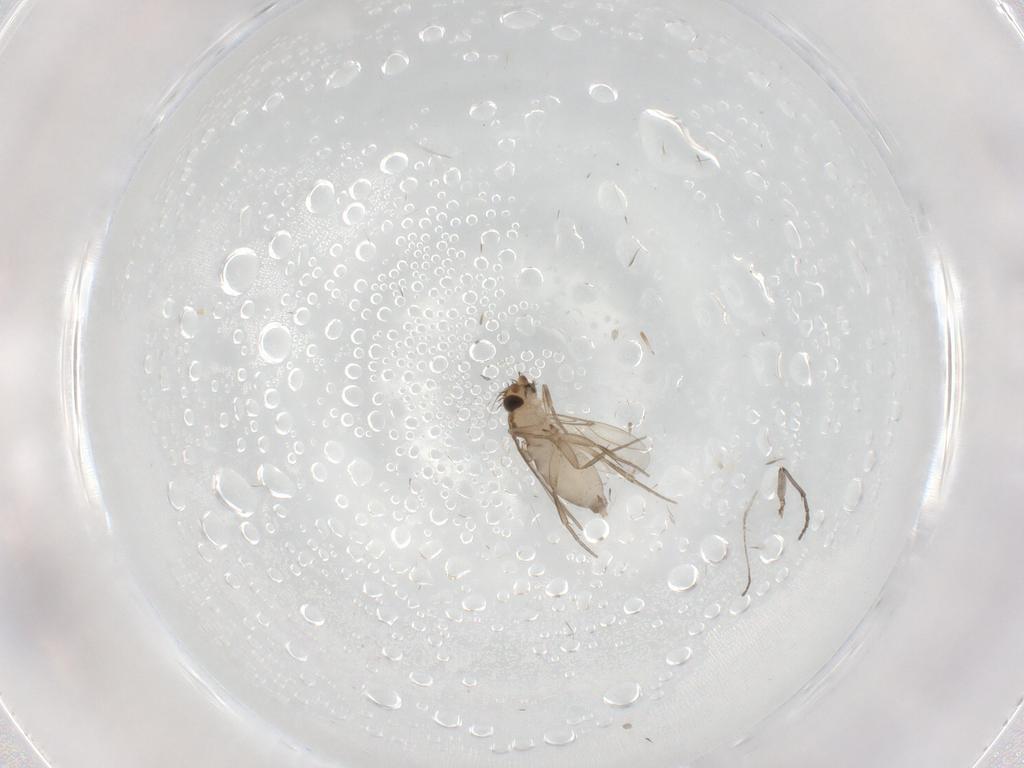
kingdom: Animalia
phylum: Arthropoda
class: Insecta
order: Diptera
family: Sciaridae
